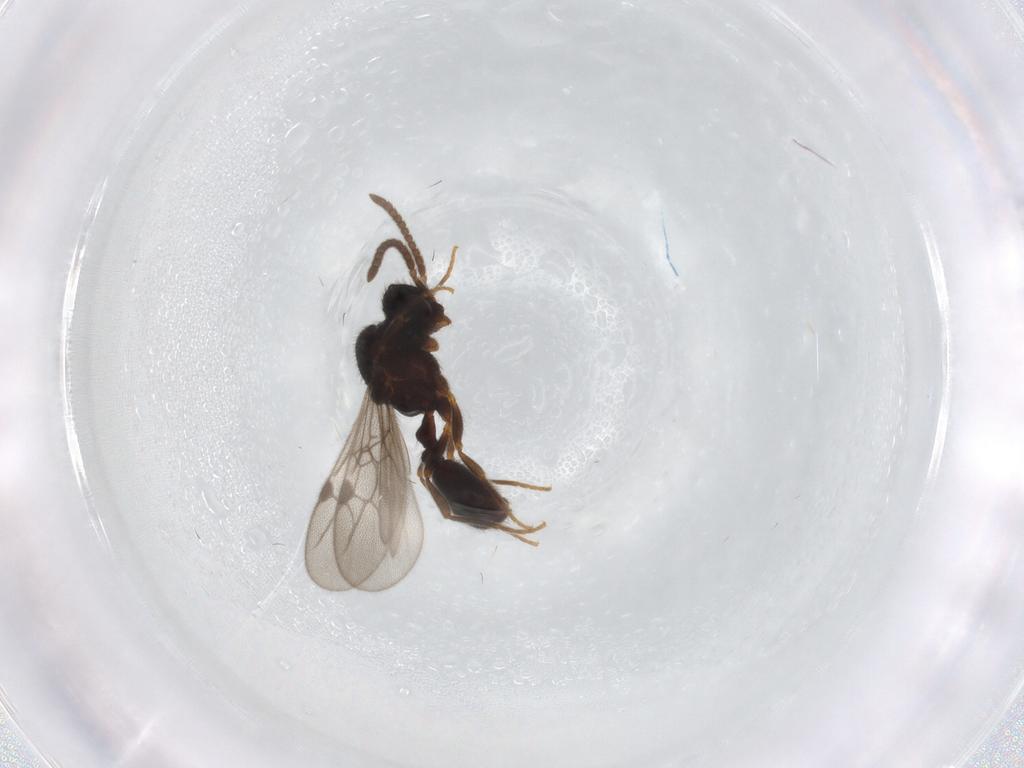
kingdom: Animalia
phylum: Arthropoda
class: Insecta
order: Hymenoptera
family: Formicidae
